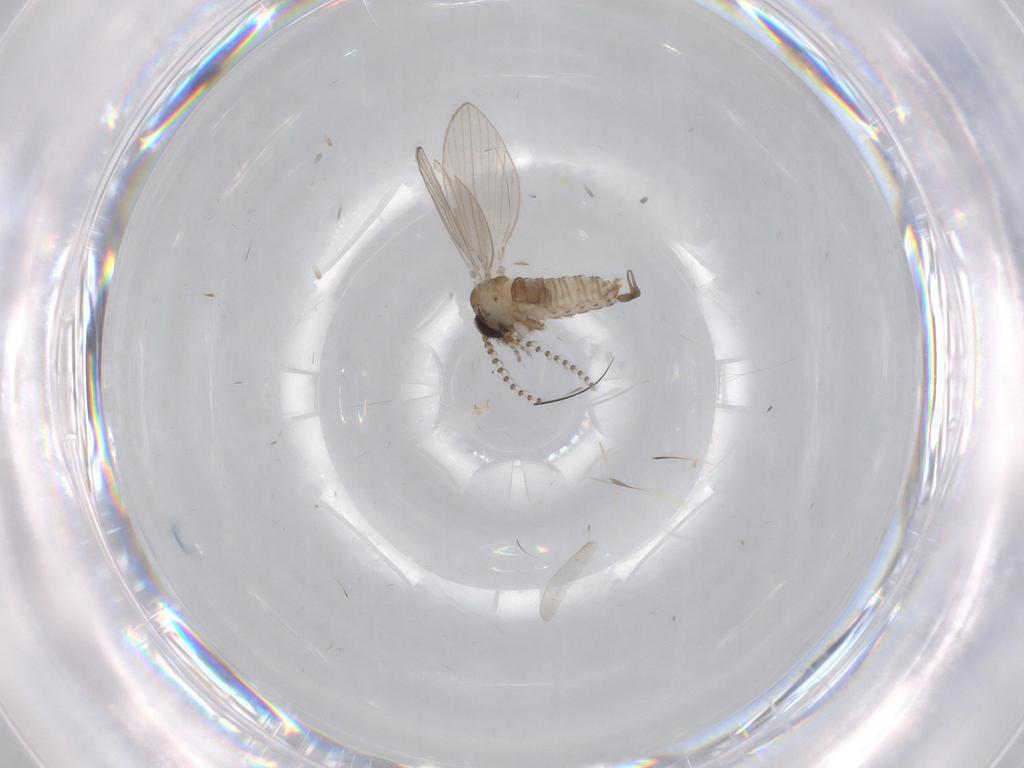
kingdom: Animalia
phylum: Arthropoda
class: Insecta
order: Diptera
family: Psychodidae
